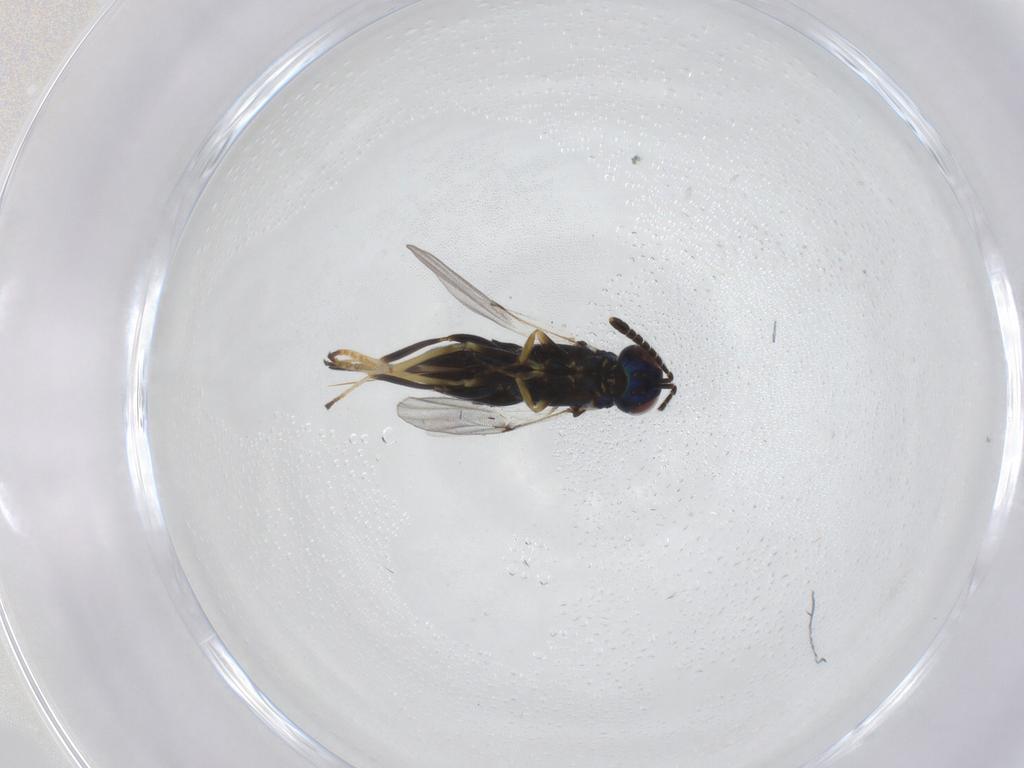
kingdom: Animalia
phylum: Arthropoda
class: Insecta
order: Hymenoptera
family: Encyrtidae
